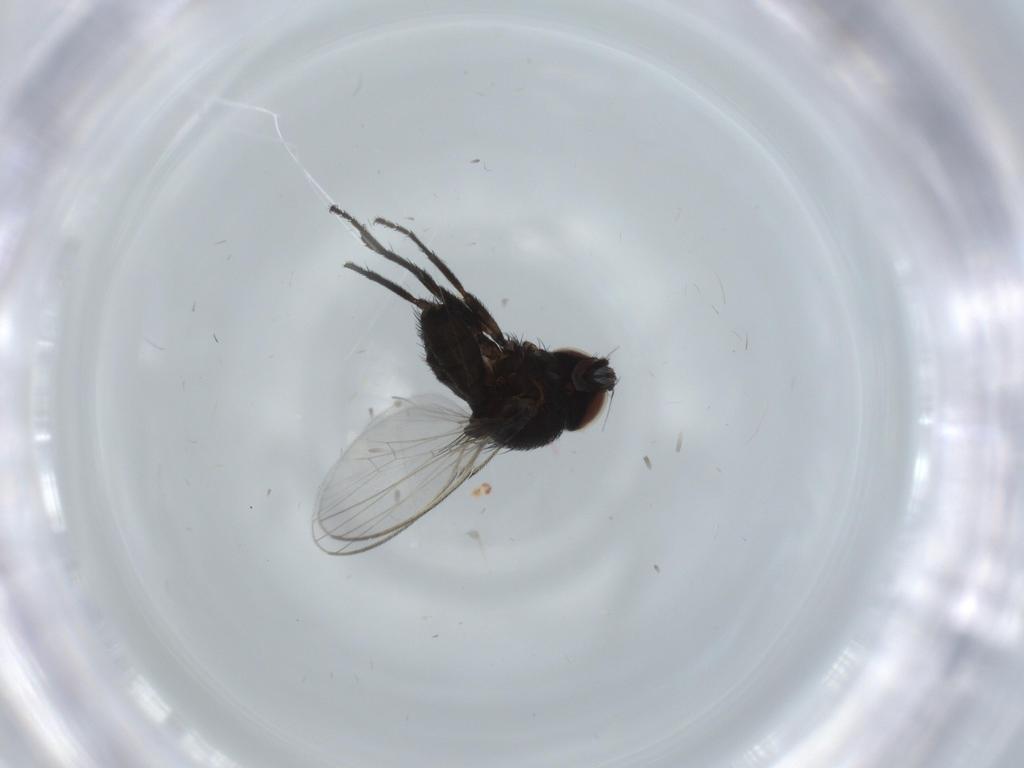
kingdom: Animalia
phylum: Arthropoda
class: Insecta
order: Diptera
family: Milichiidae
